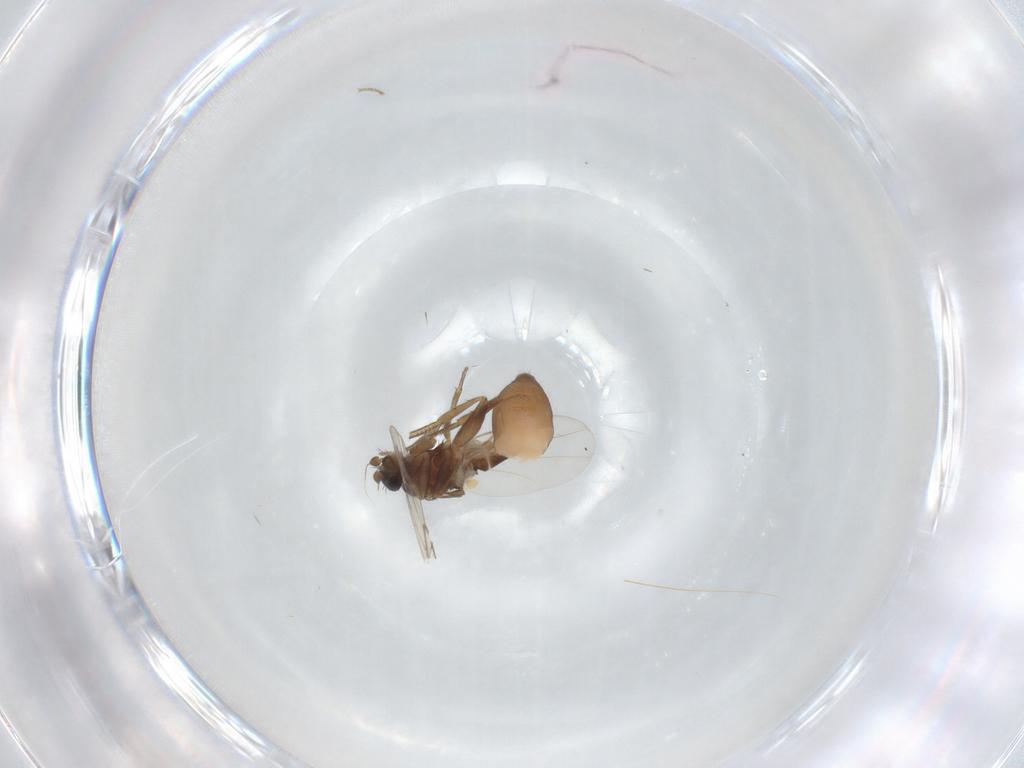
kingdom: Animalia
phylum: Arthropoda
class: Insecta
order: Diptera
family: Phoridae
